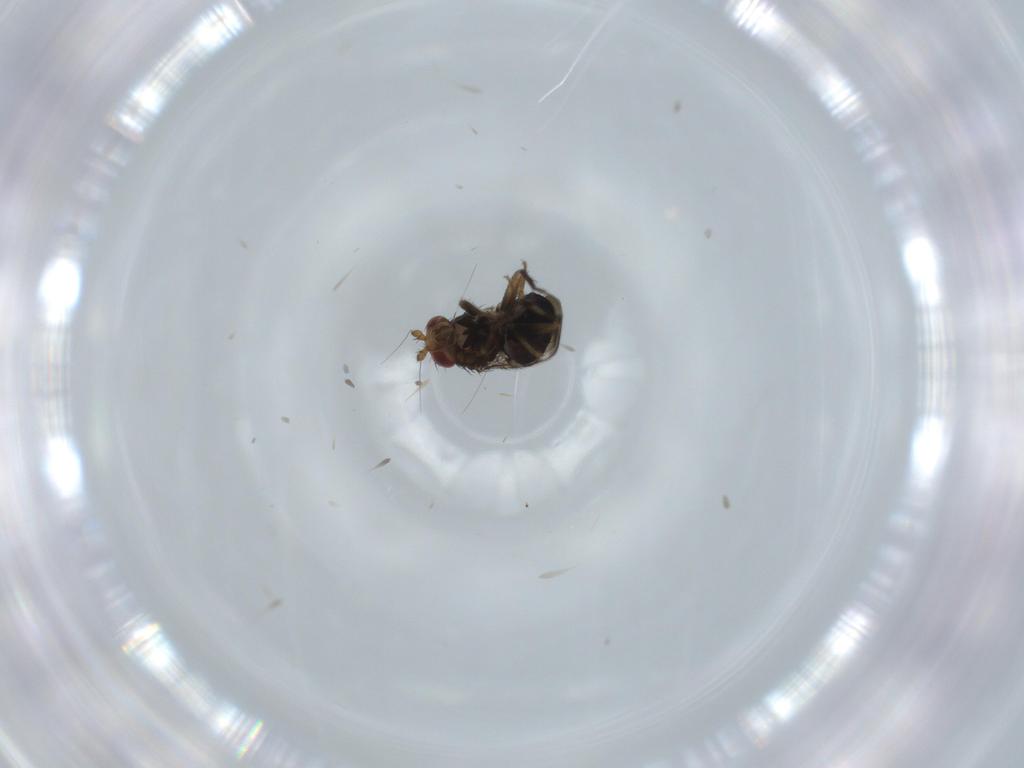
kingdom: Animalia
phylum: Arthropoda
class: Insecta
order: Diptera
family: Sphaeroceridae
